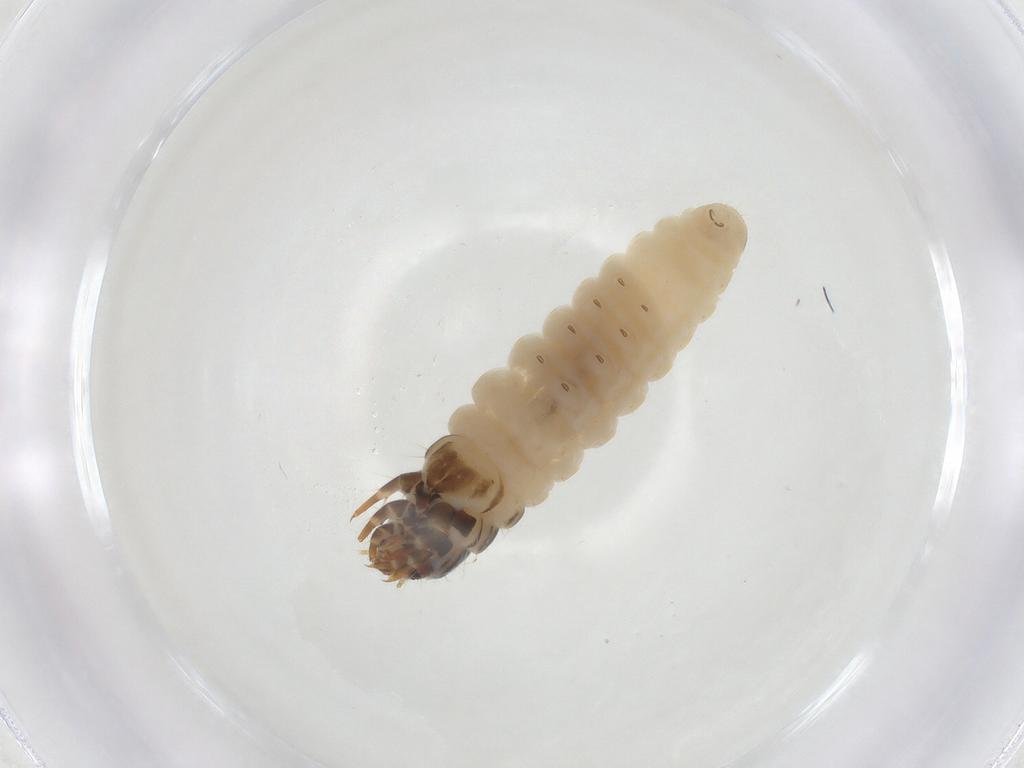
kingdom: Animalia
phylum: Arthropoda
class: Insecta
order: Lepidoptera
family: Psychidae
